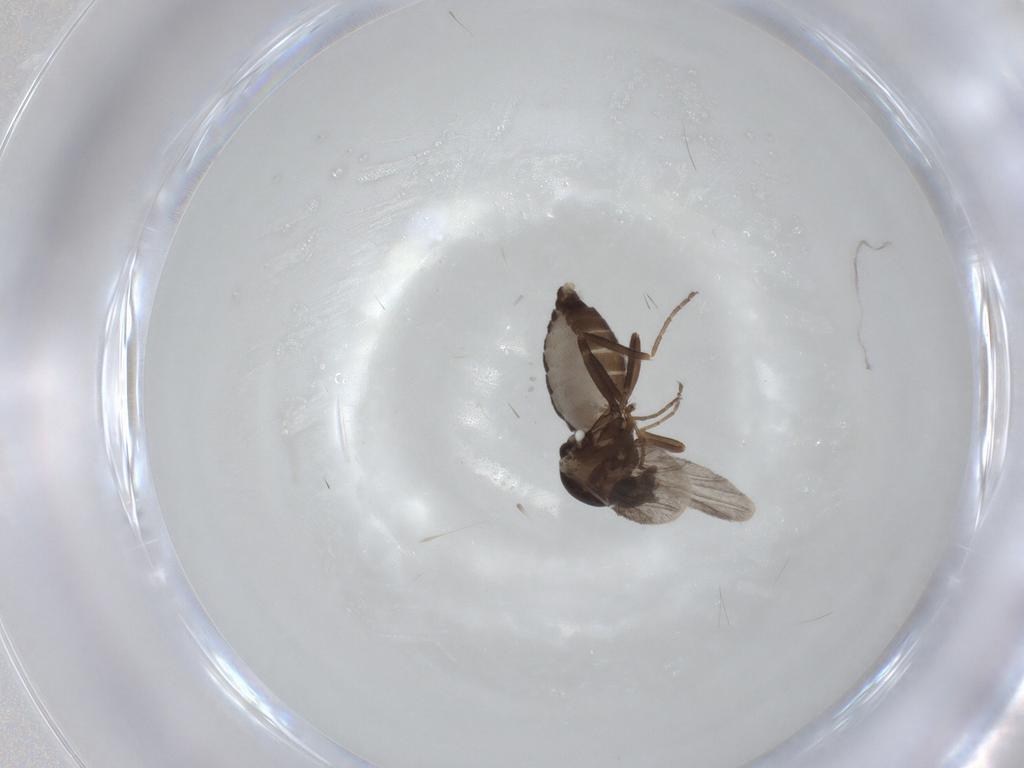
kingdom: Animalia
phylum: Arthropoda
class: Insecta
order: Diptera
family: Ceratopogonidae
